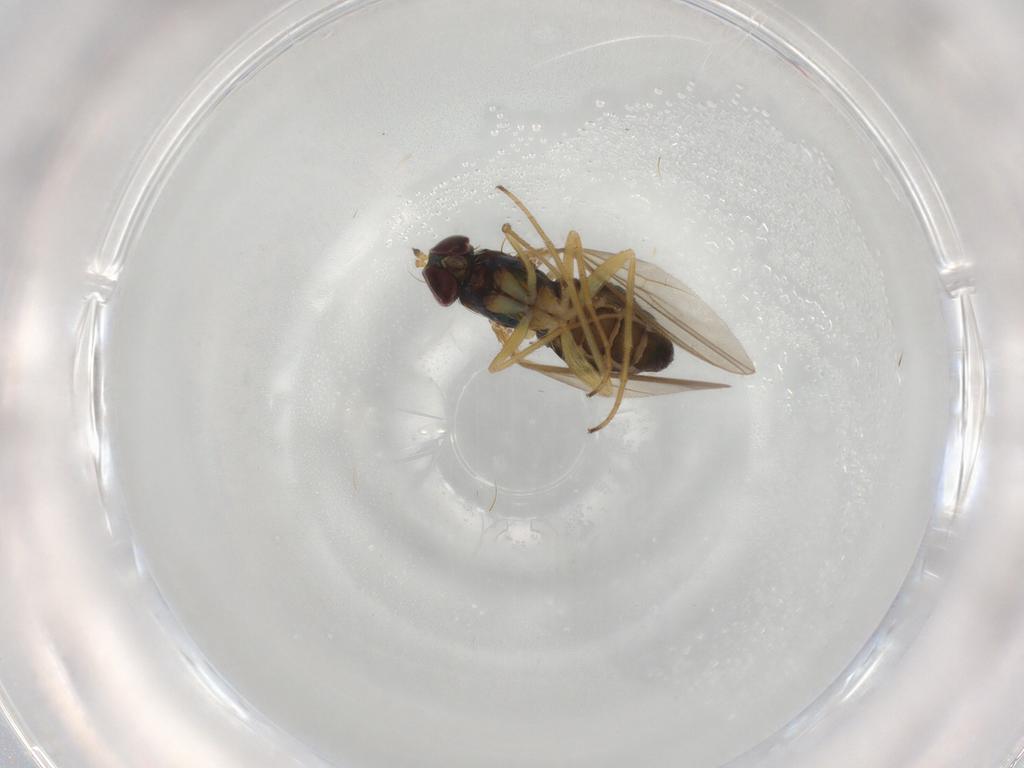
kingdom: Animalia
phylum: Arthropoda
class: Insecta
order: Diptera
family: Dolichopodidae
